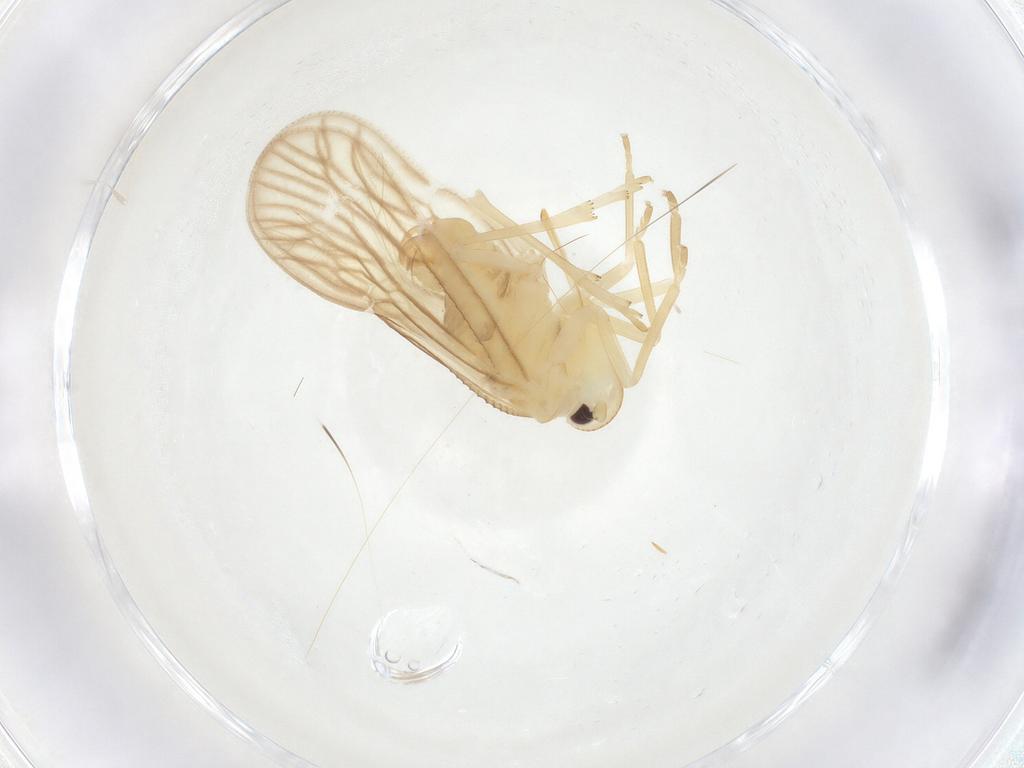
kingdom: Animalia
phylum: Arthropoda
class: Insecta
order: Hemiptera
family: Meenoplidae
